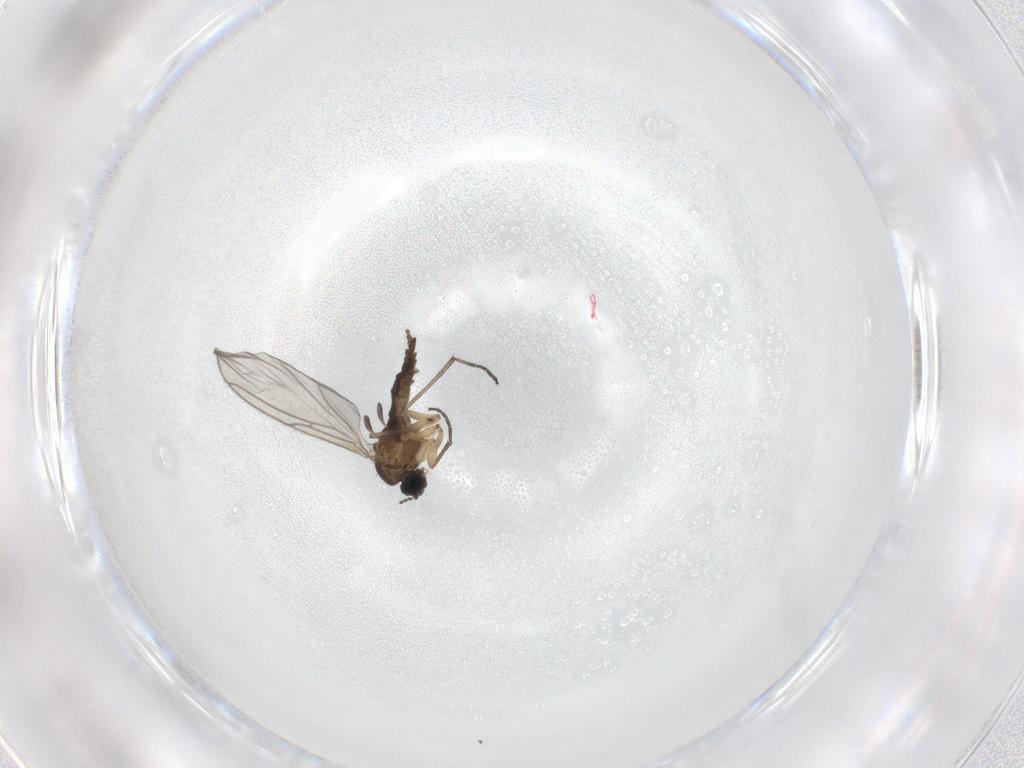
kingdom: Animalia
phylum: Arthropoda
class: Insecta
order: Diptera
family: Sciaridae
